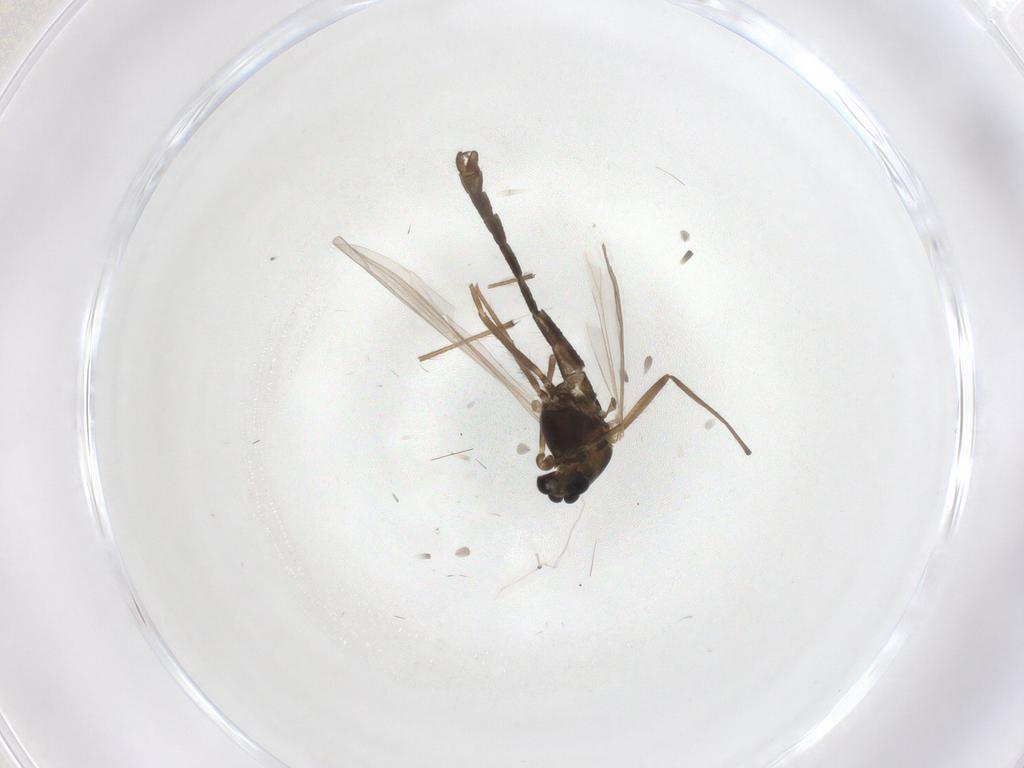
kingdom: Animalia
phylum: Arthropoda
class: Insecta
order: Diptera
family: Chironomidae
